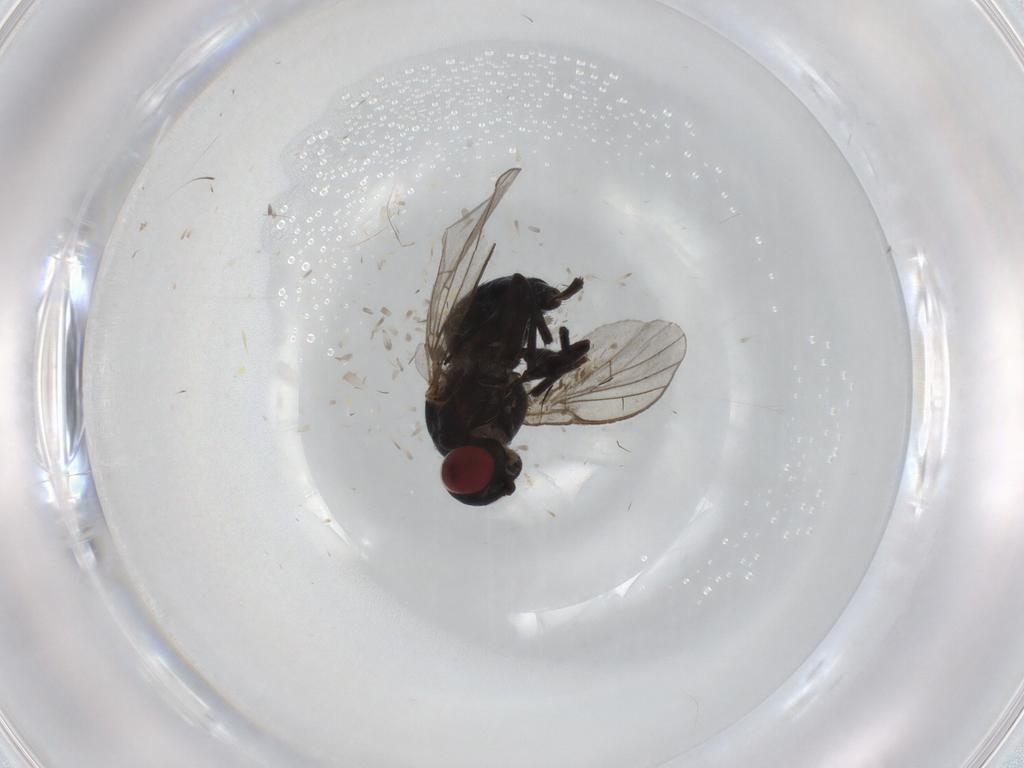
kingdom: Animalia
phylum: Arthropoda
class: Insecta
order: Diptera
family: Agromyzidae
